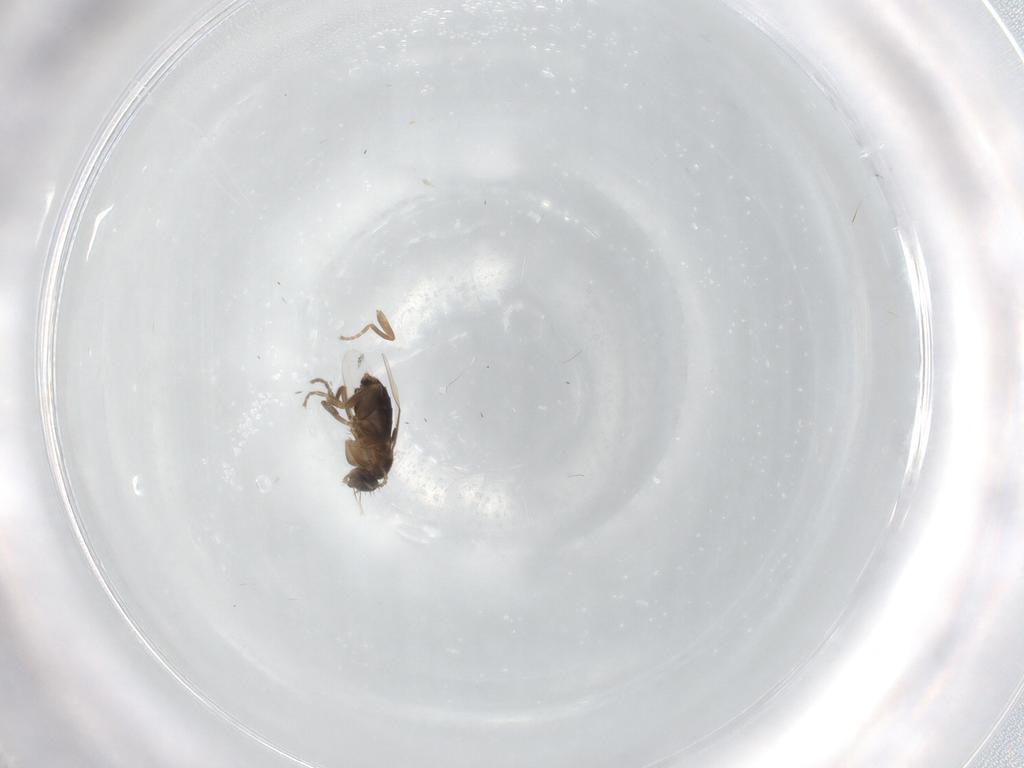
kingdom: Animalia
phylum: Arthropoda
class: Insecta
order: Diptera
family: Phoridae
